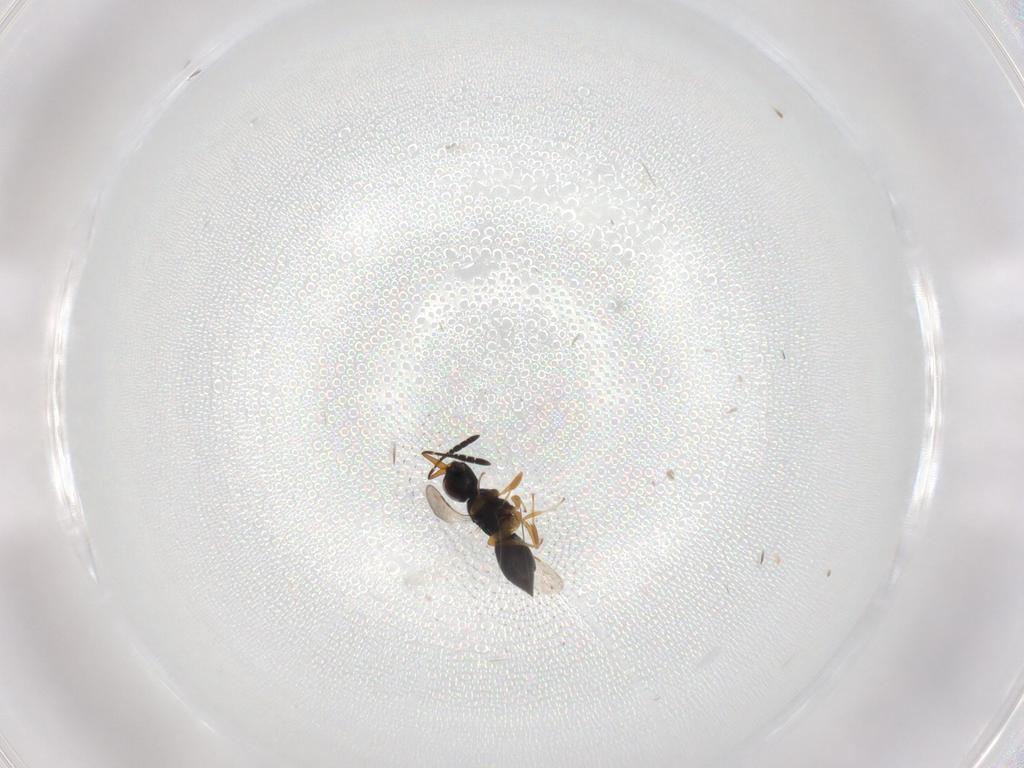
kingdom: Animalia
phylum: Arthropoda
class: Insecta
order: Hymenoptera
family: Braconidae
